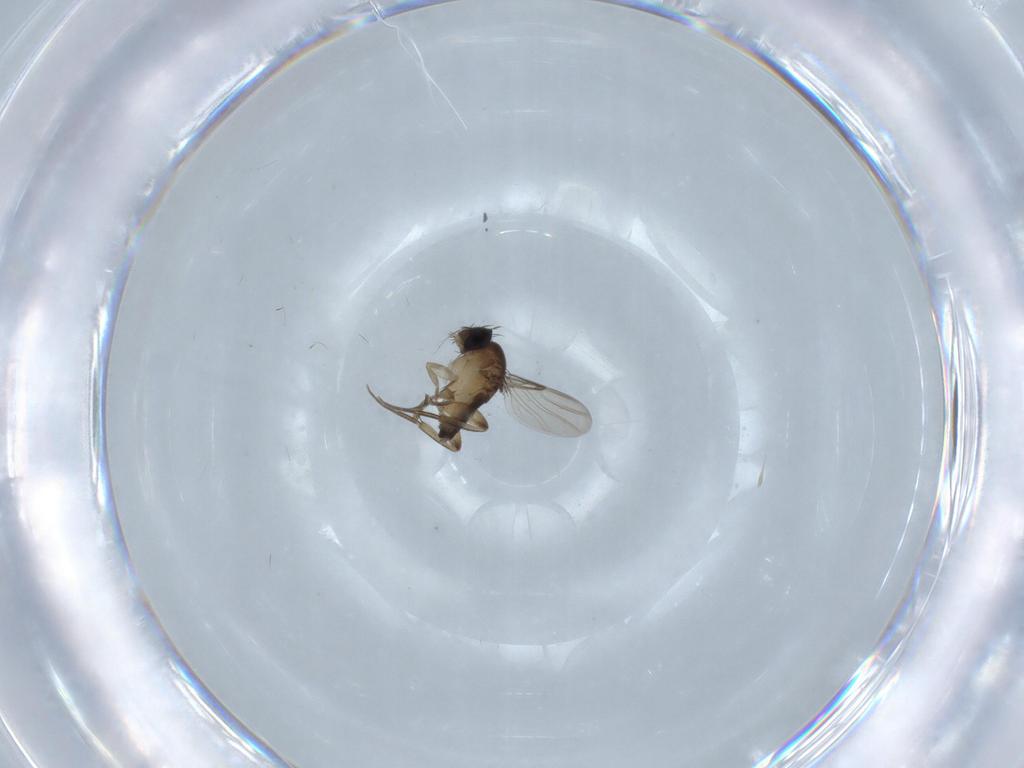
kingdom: Animalia
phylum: Arthropoda
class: Insecta
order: Diptera
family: Phoridae
